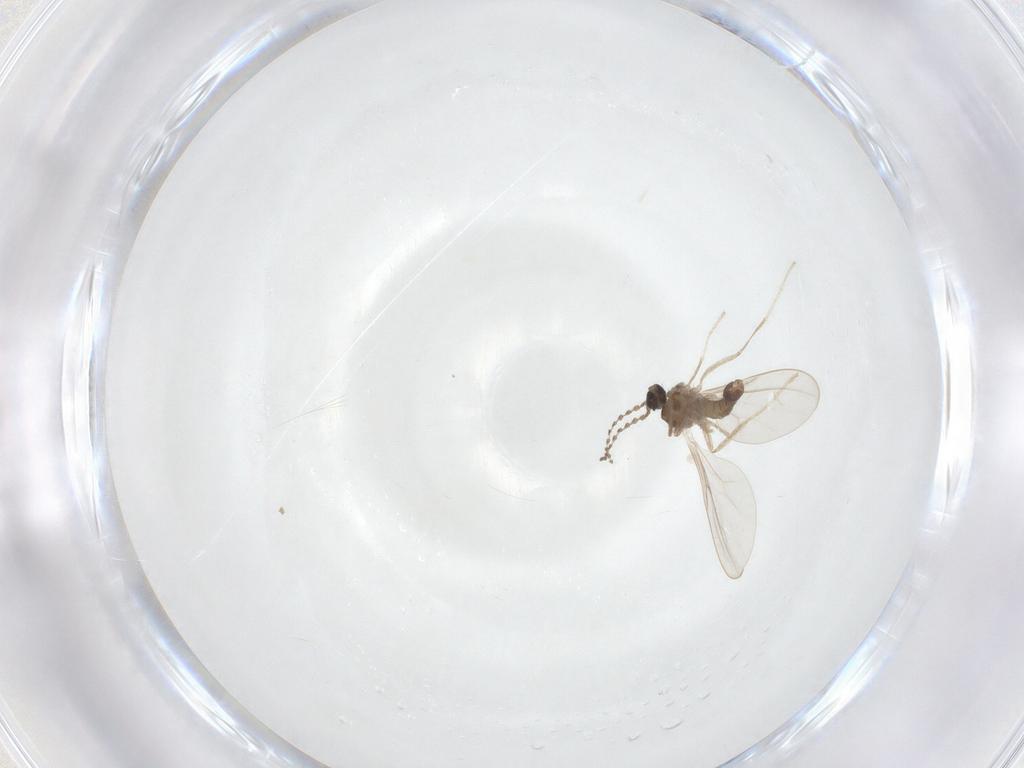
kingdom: Animalia
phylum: Arthropoda
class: Insecta
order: Diptera
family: Cecidomyiidae
